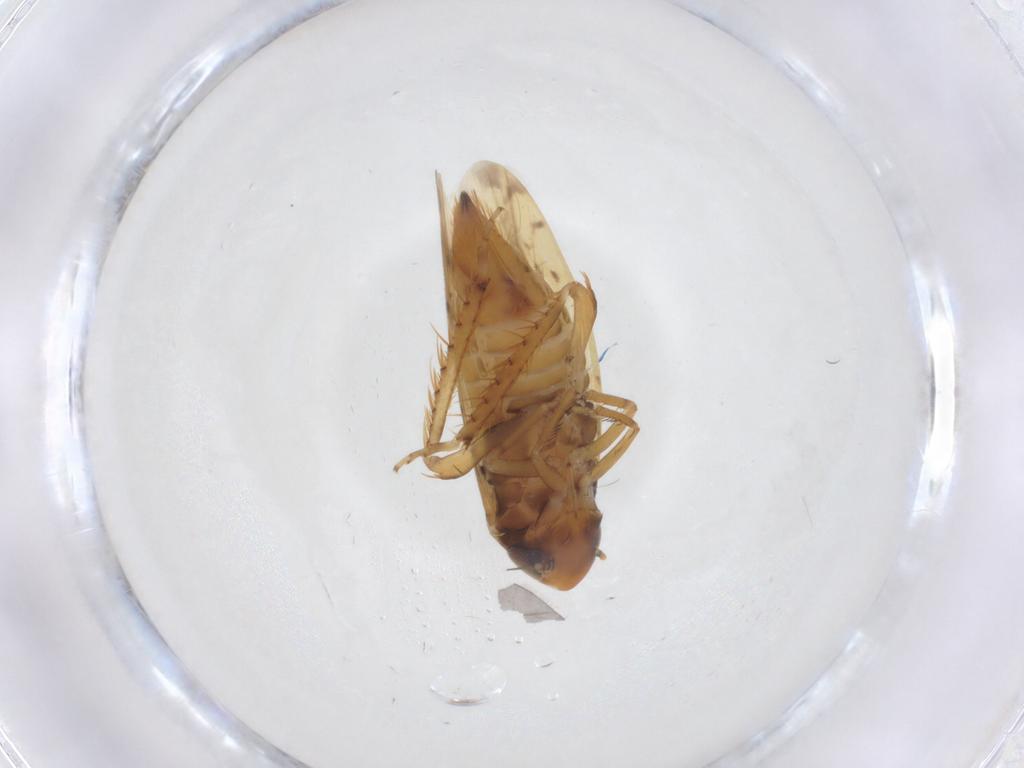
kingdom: Animalia
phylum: Arthropoda
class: Insecta
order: Hemiptera
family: Cicadellidae
